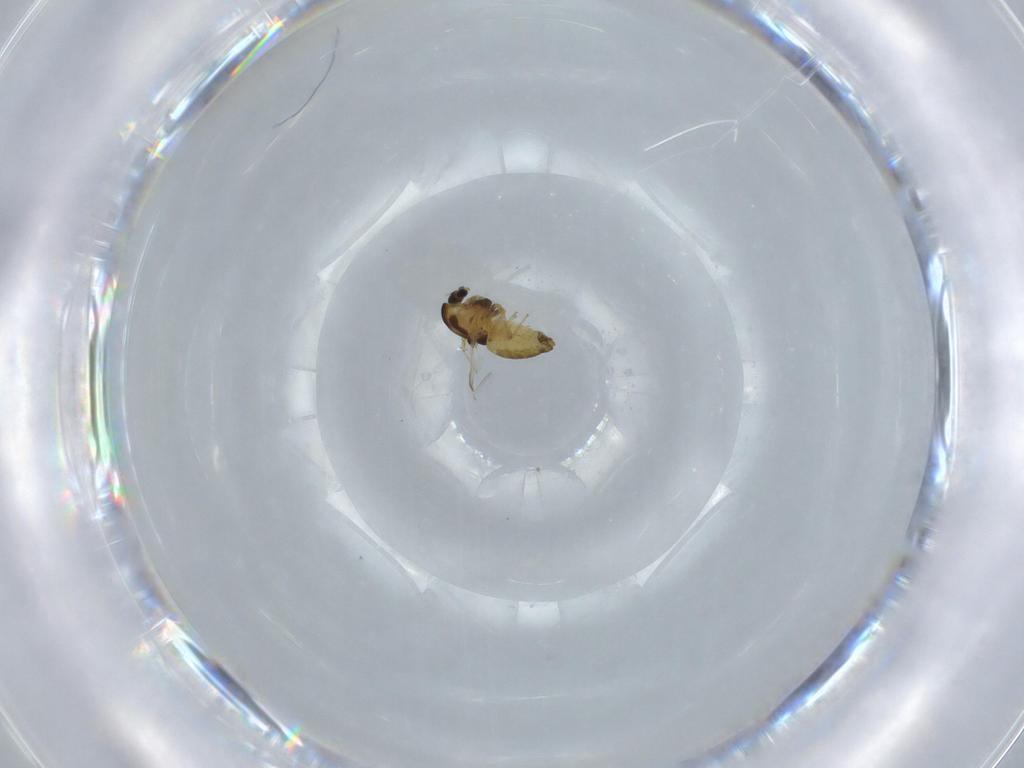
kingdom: Animalia
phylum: Arthropoda
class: Insecta
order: Diptera
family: Chironomidae
